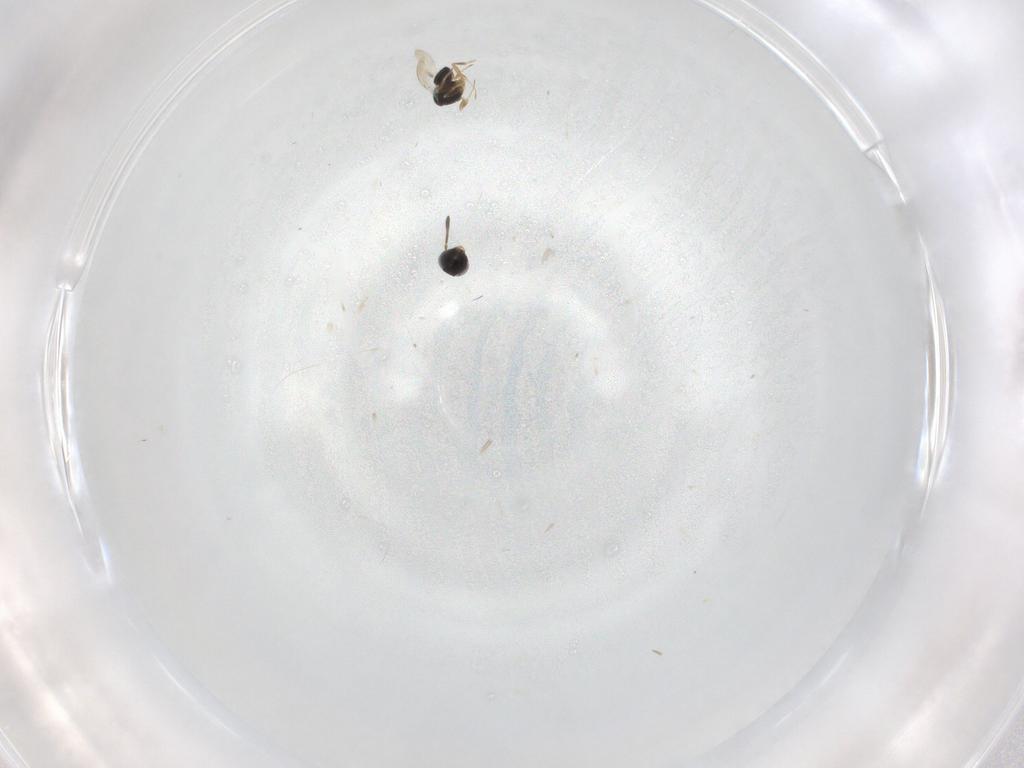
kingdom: Animalia
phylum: Arthropoda
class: Insecta
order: Hymenoptera
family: Scelionidae
